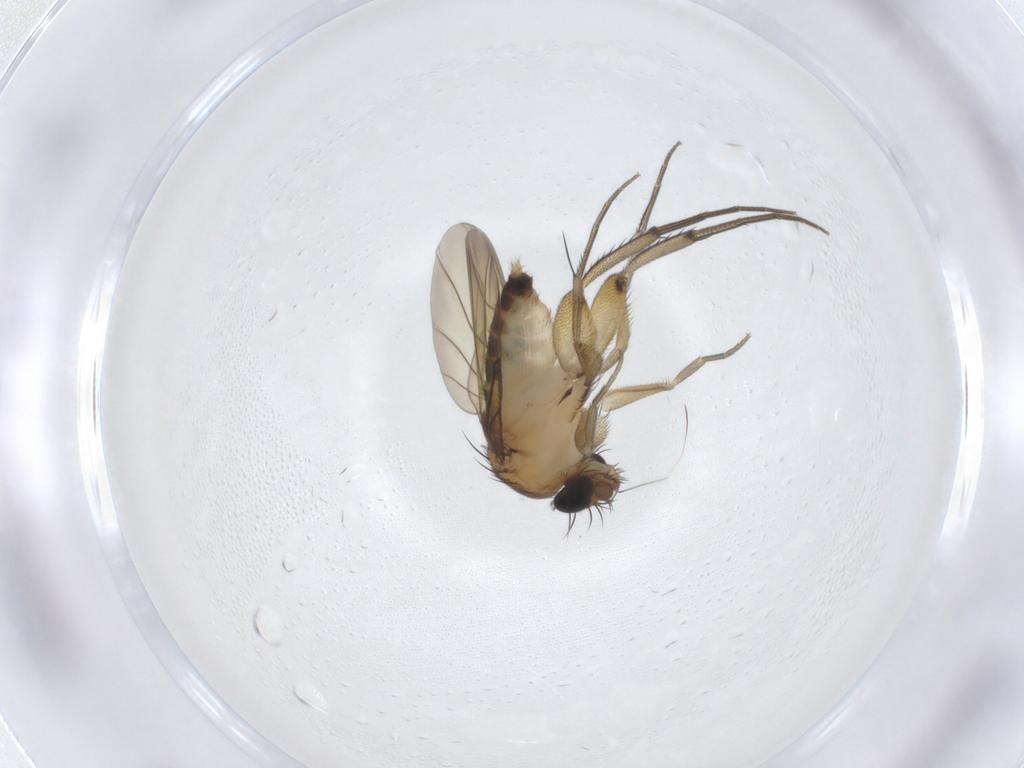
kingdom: Animalia
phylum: Arthropoda
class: Insecta
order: Diptera
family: Phoridae
